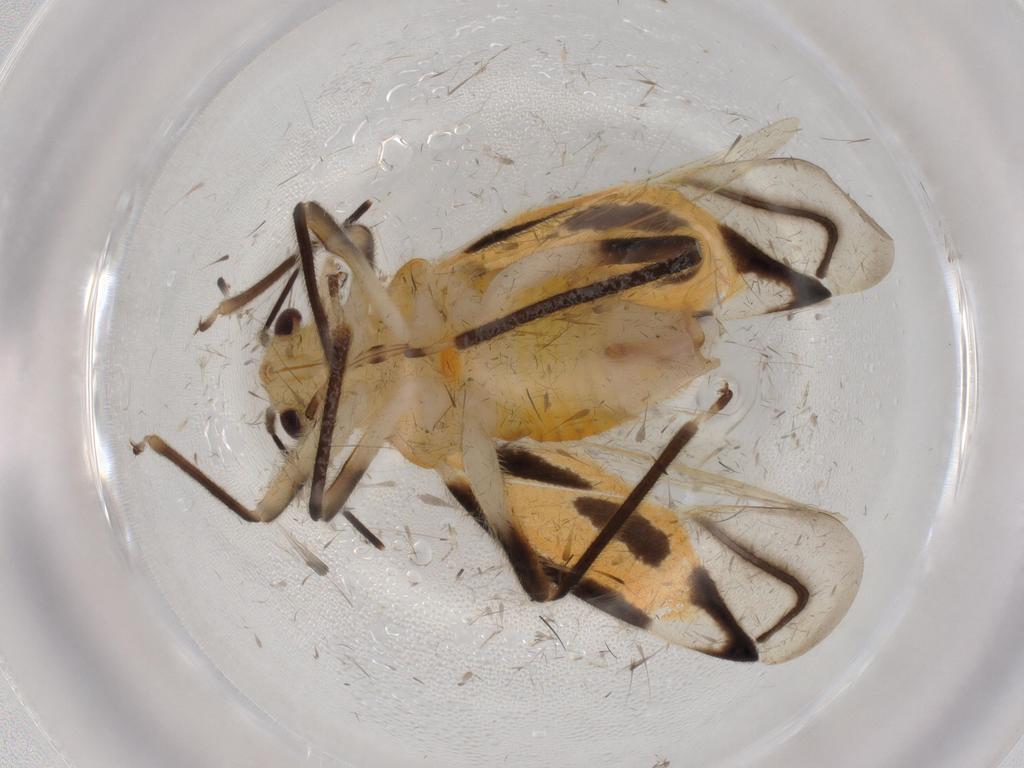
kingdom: Animalia
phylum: Arthropoda
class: Insecta
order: Hemiptera
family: Miridae
